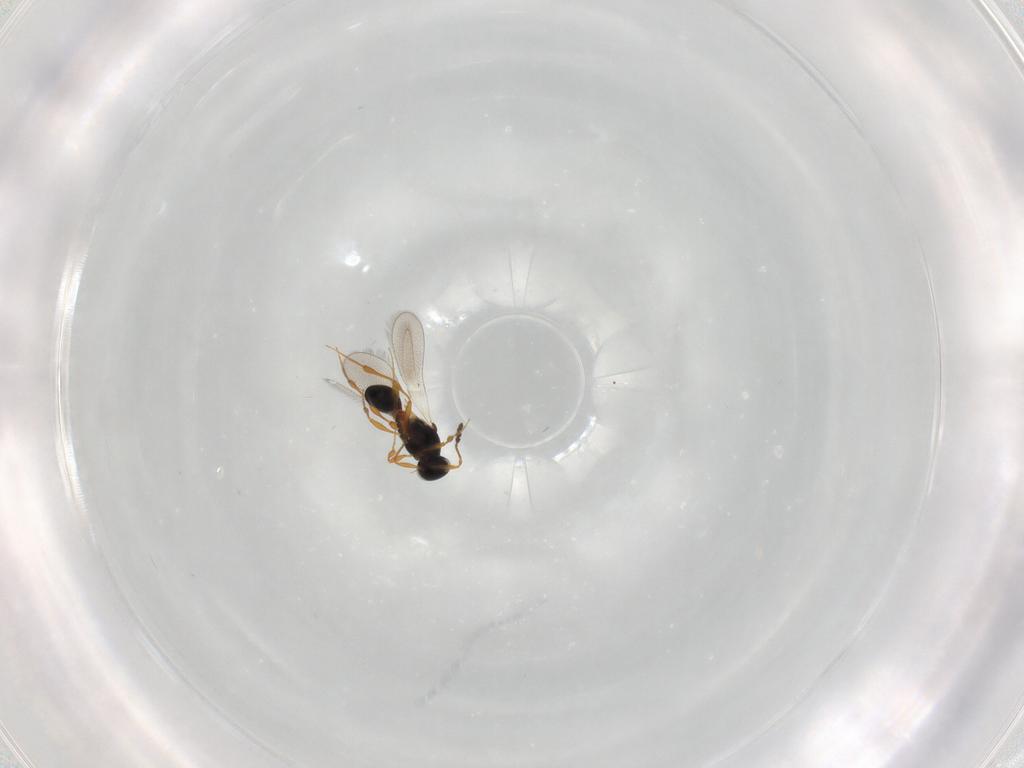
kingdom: Animalia
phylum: Arthropoda
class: Insecta
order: Hymenoptera
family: Platygastridae
